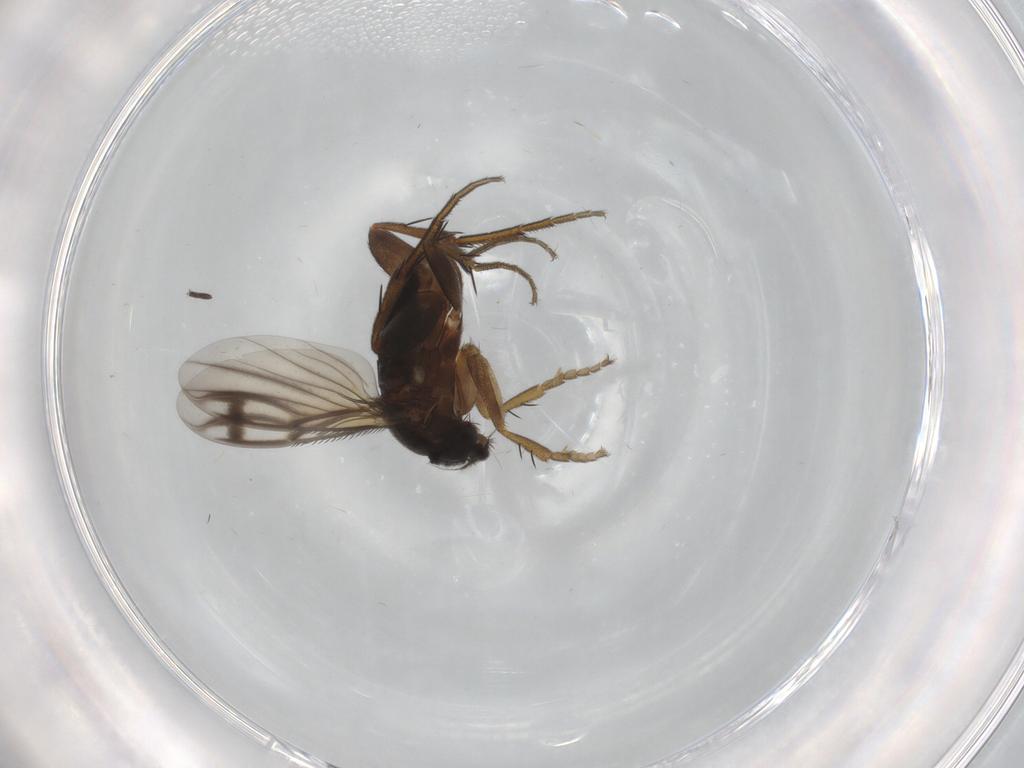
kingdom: Animalia
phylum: Arthropoda
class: Insecta
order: Diptera
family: Phoridae
